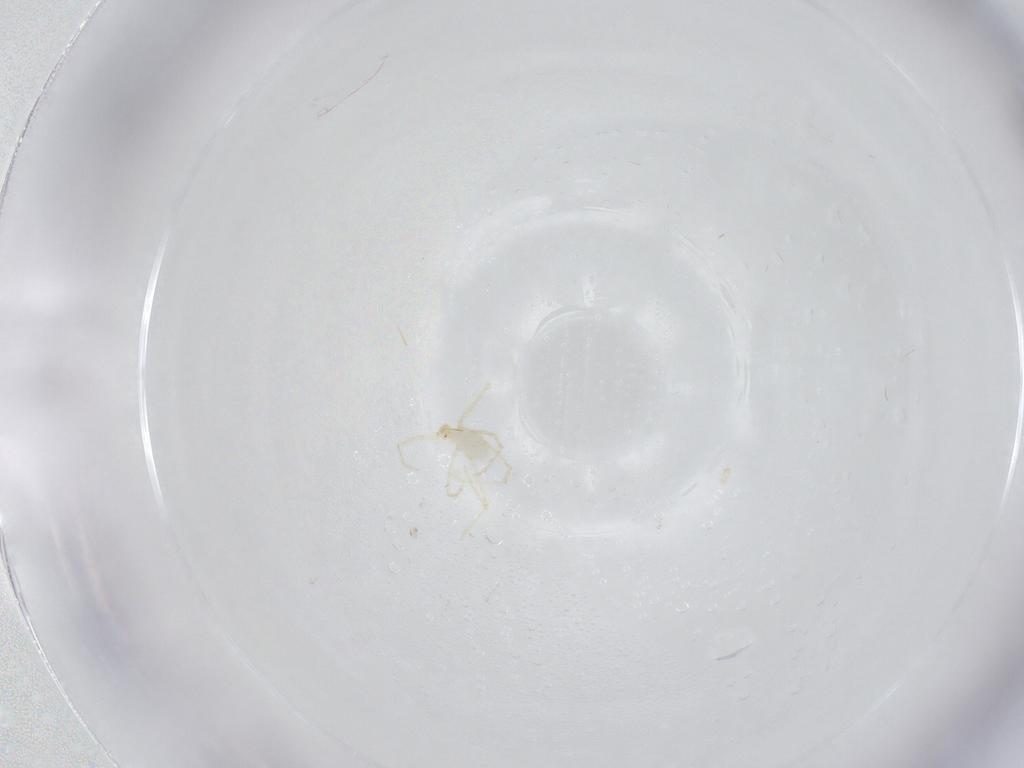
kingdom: Animalia
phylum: Arthropoda
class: Arachnida
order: Trombidiformes
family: Erythraeidae
